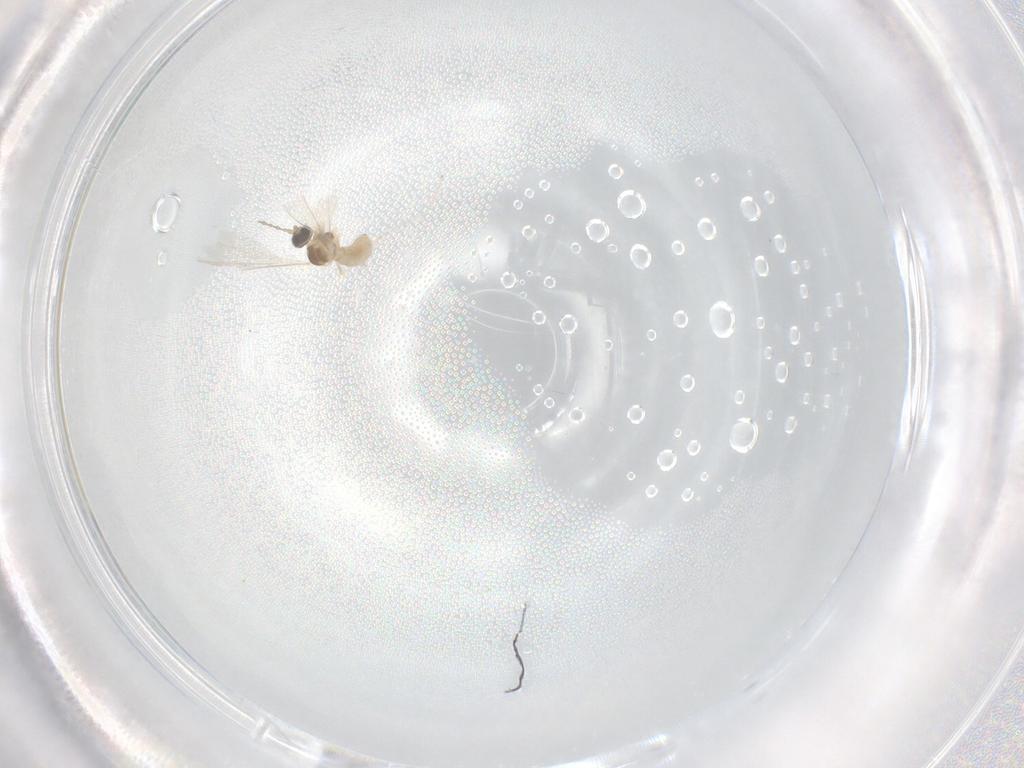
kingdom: Animalia
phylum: Arthropoda
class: Insecta
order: Diptera
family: Cecidomyiidae
